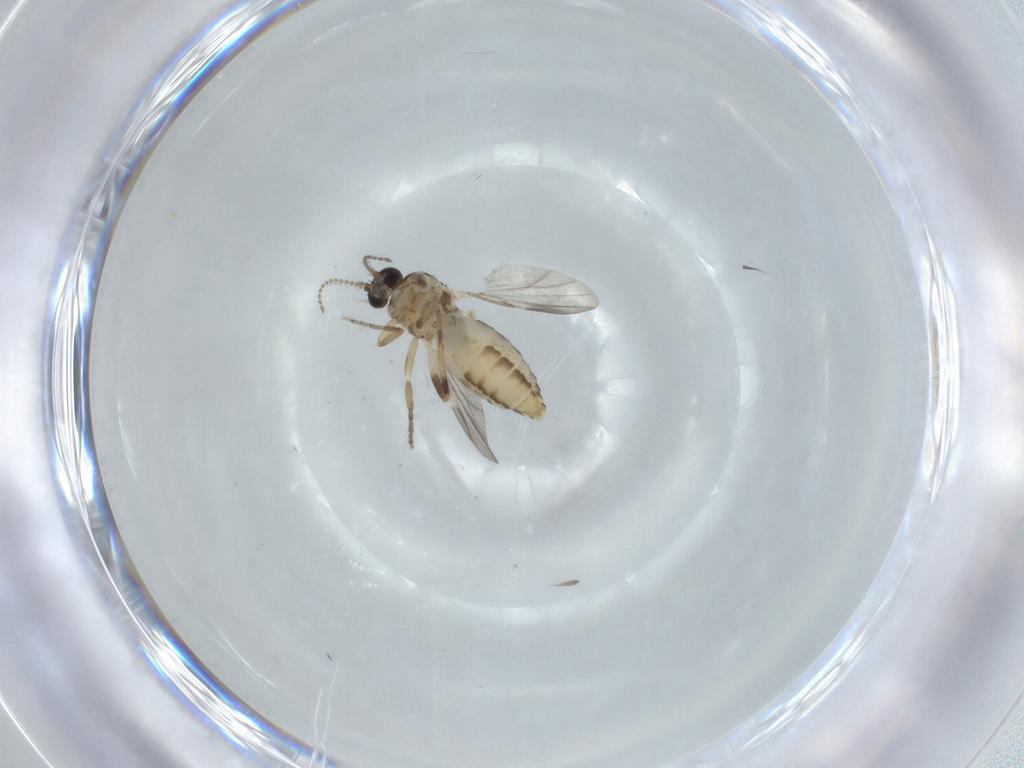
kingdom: Animalia
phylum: Arthropoda
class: Insecta
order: Diptera
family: Ceratopogonidae
